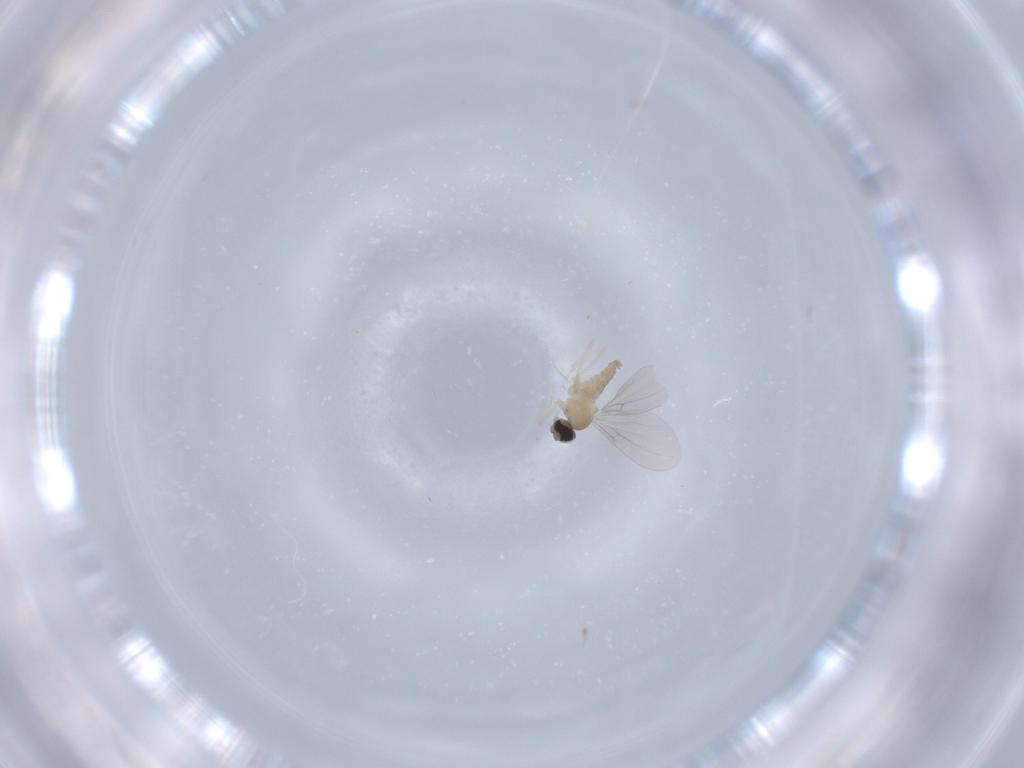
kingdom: Animalia
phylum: Arthropoda
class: Insecta
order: Diptera
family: Cecidomyiidae
